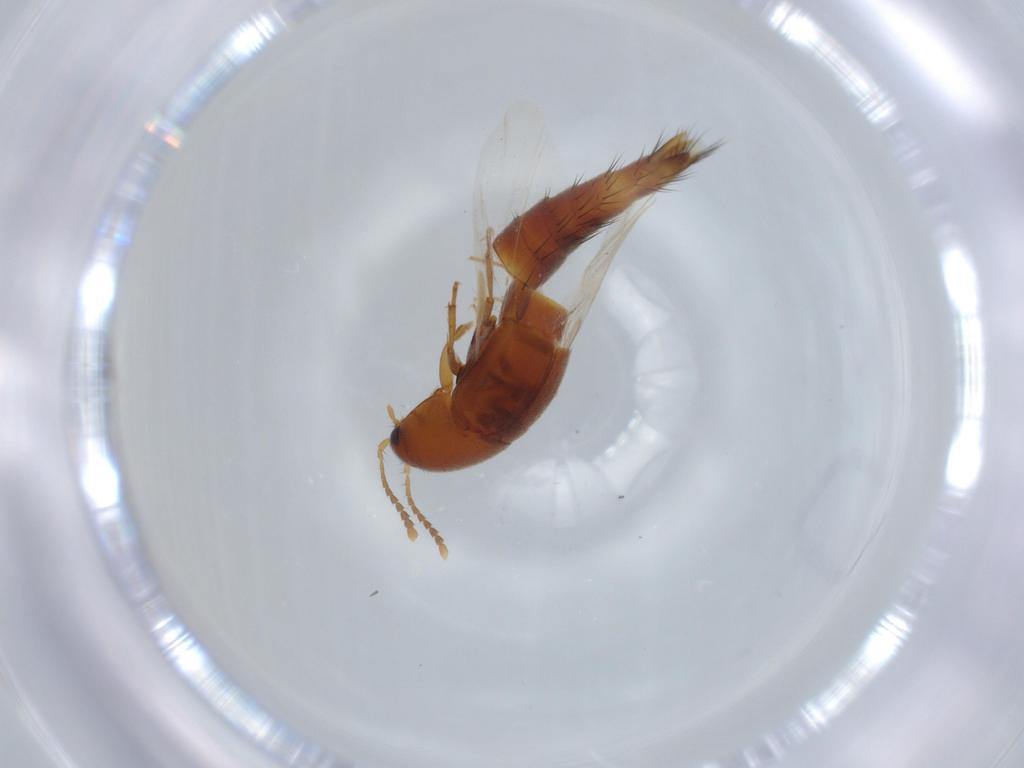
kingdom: Animalia
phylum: Arthropoda
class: Insecta
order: Coleoptera
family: Staphylinidae
